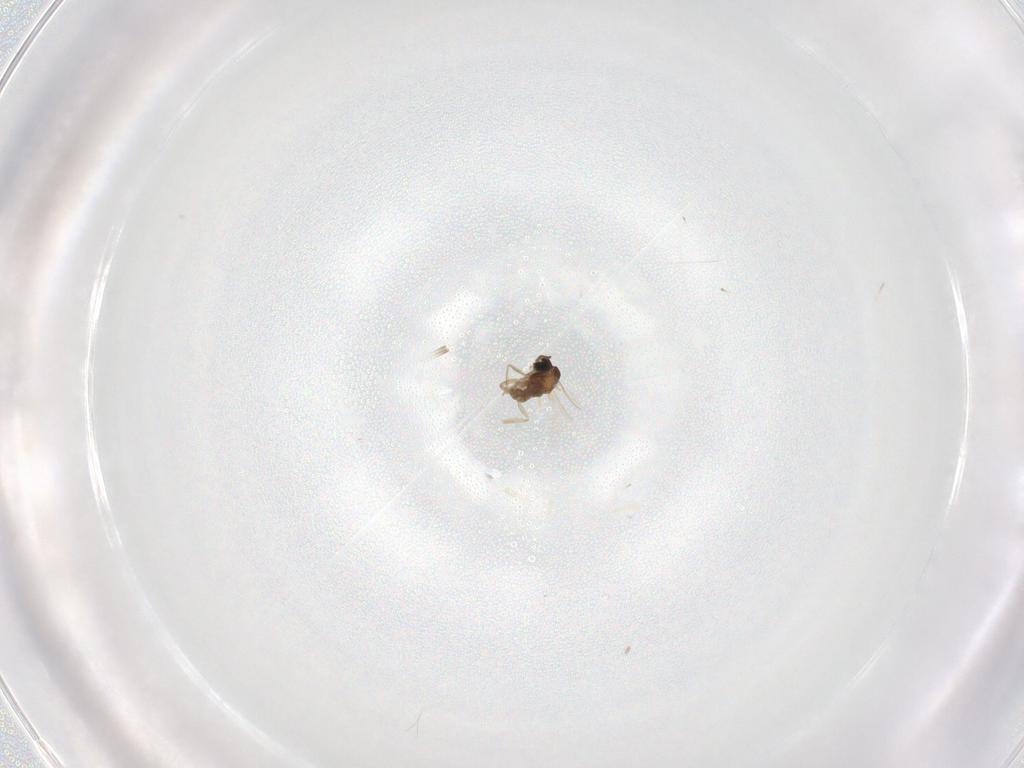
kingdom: Animalia
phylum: Arthropoda
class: Insecta
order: Diptera
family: Cecidomyiidae
